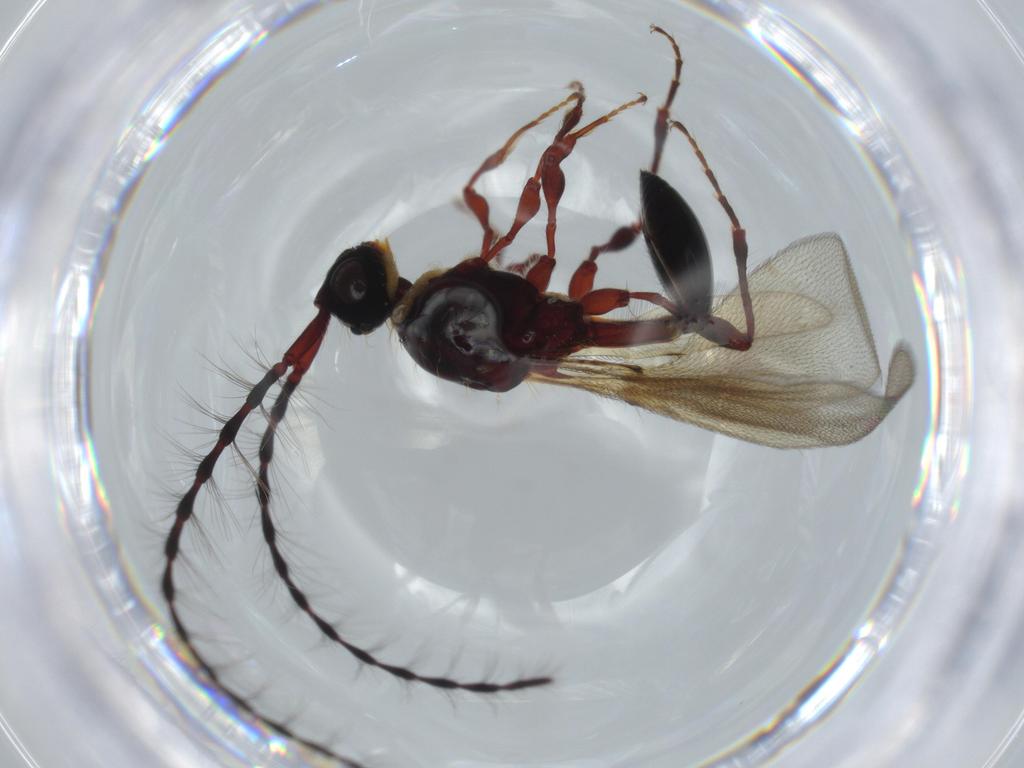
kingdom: Animalia
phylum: Arthropoda
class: Insecta
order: Hymenoptera
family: Diapriidae
